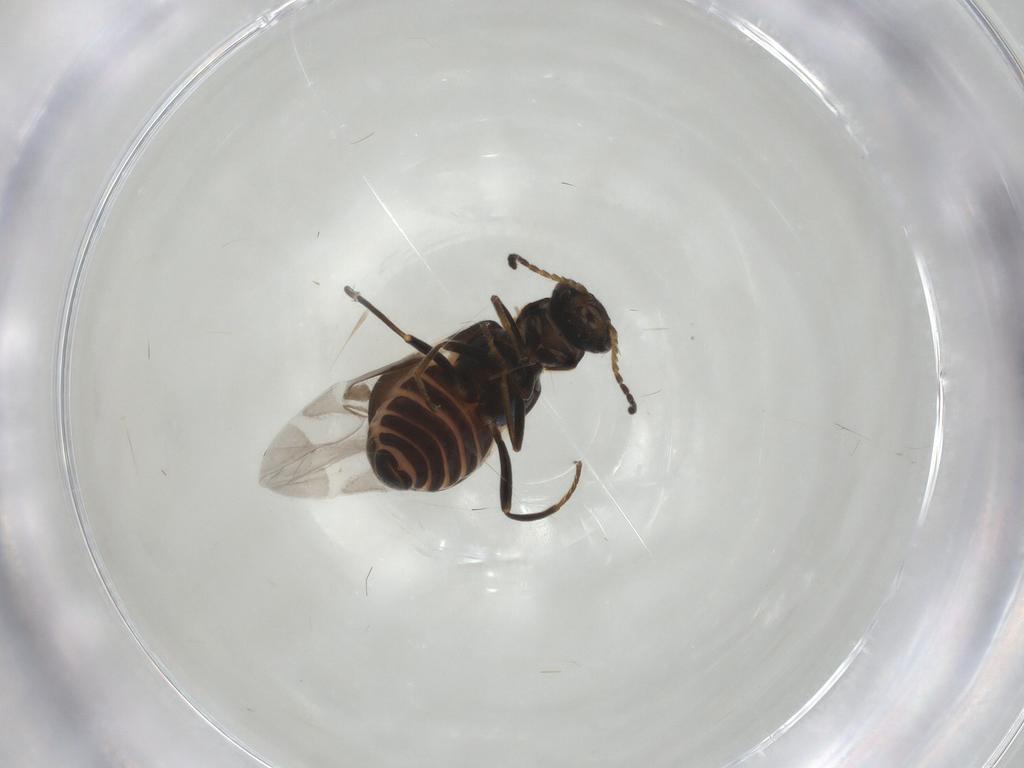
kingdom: Animalia
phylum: Arthropoda
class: Insecta
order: Coleoptera
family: Melyridae
